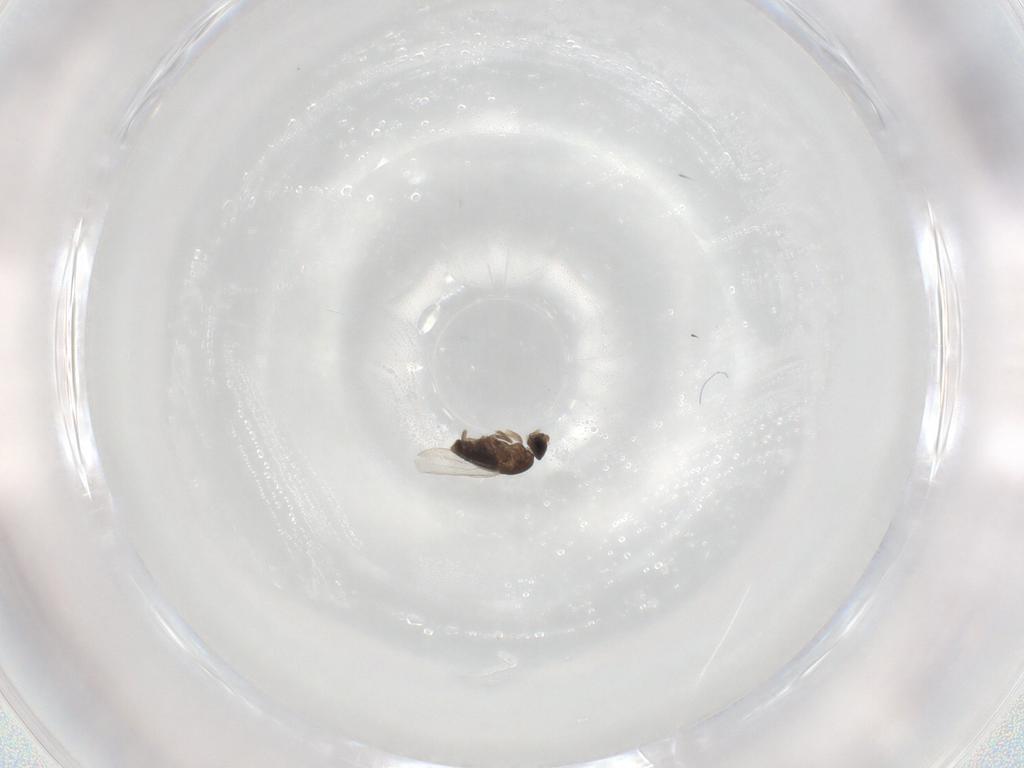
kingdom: Animalia
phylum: Arthropoda
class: Insecta
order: Diptera
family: Phoridae
